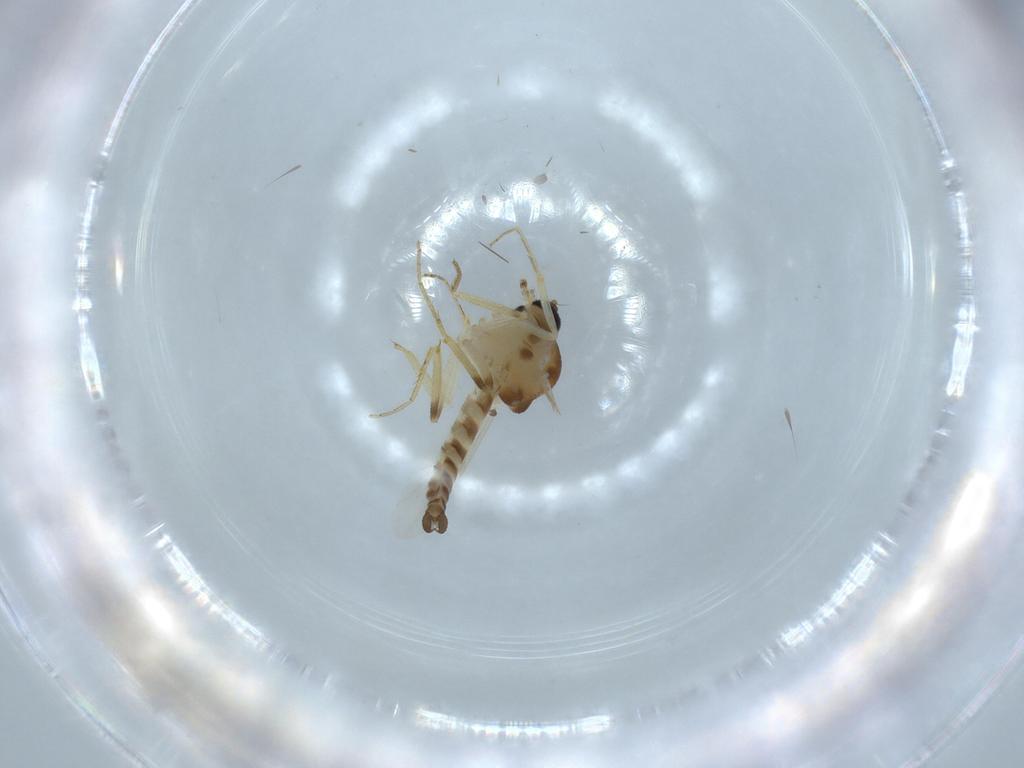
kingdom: Animalia
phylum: Arthropoda
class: Insecta
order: Diptera
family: Ceratopogonidae
